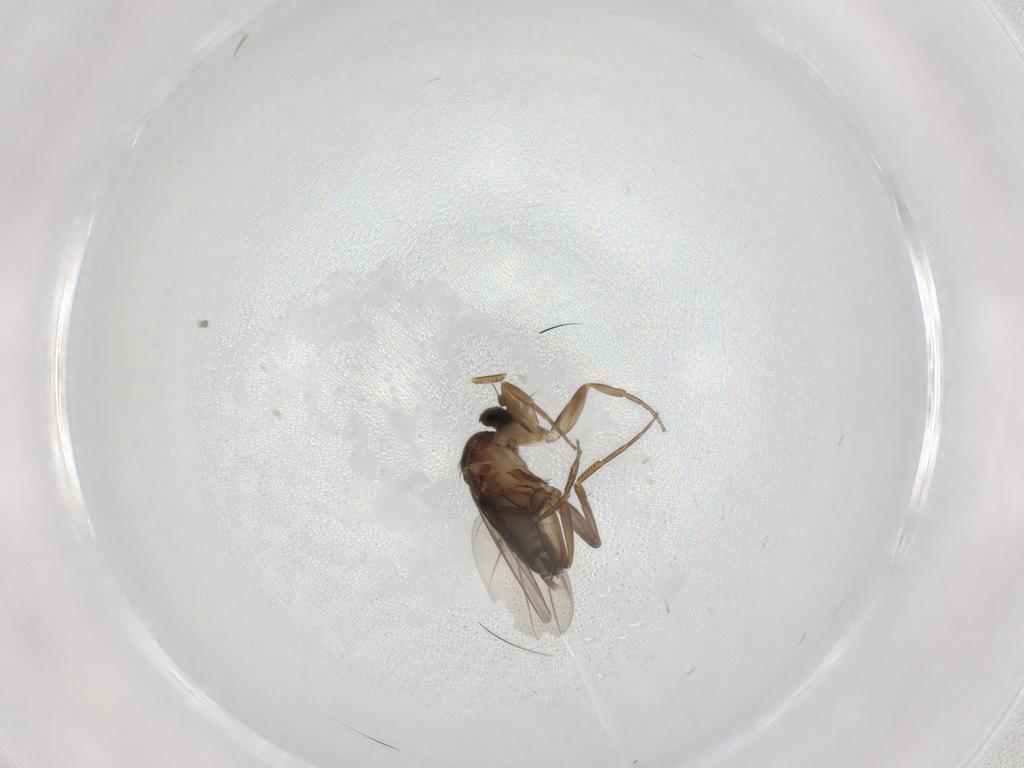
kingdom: Animalia
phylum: Arthropoda
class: Insecta
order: Diptera
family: Phoridae
